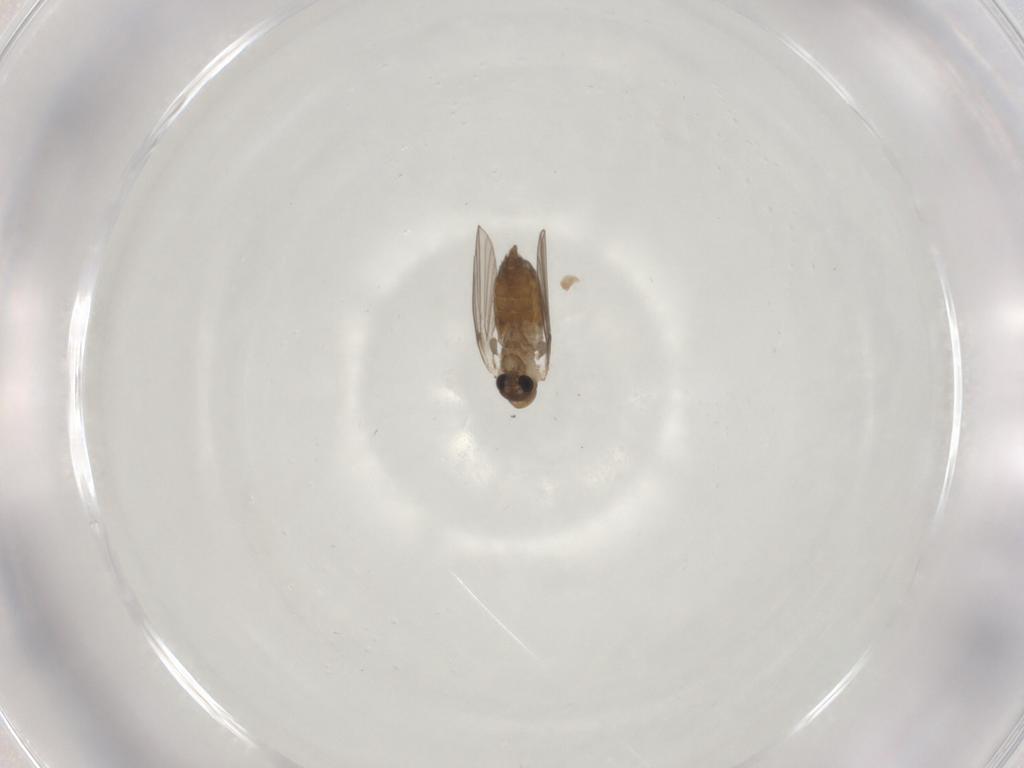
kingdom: Animalia
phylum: Arthropoda
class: Insecta
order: Diptera
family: Psychodidae
